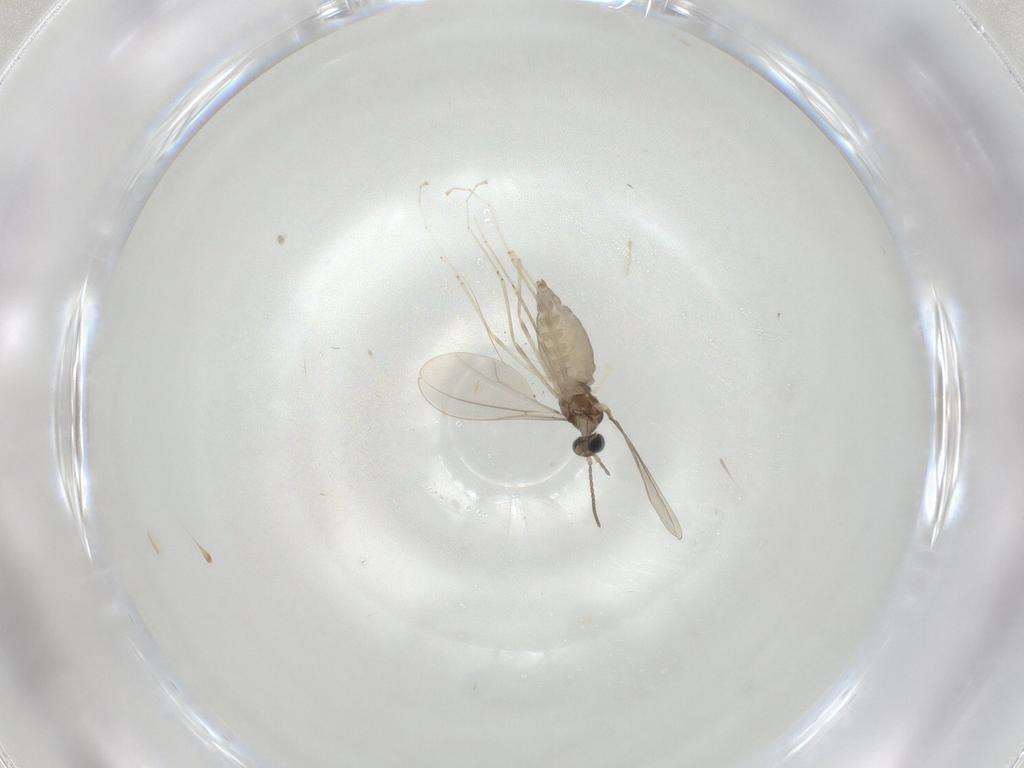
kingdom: Animalia
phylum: Arthropoda
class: Insecta
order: Diptera
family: Cecidomyiidae
